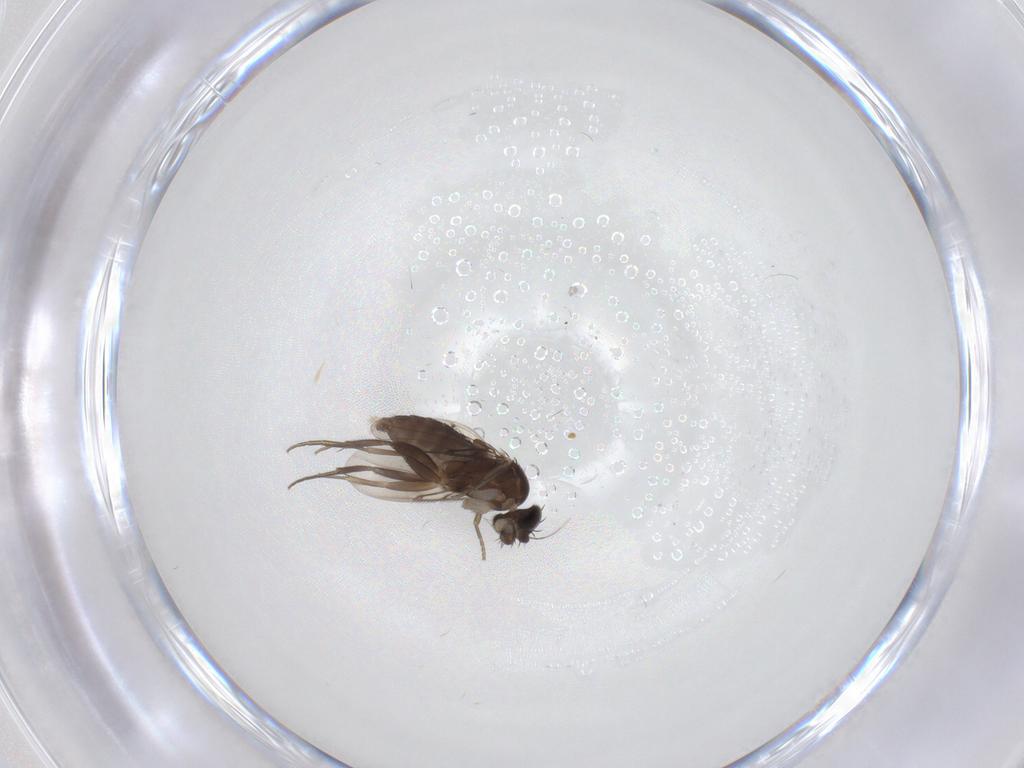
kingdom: Animalia
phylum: Arthropoda
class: Insecta
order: Diptera
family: Phoridae
